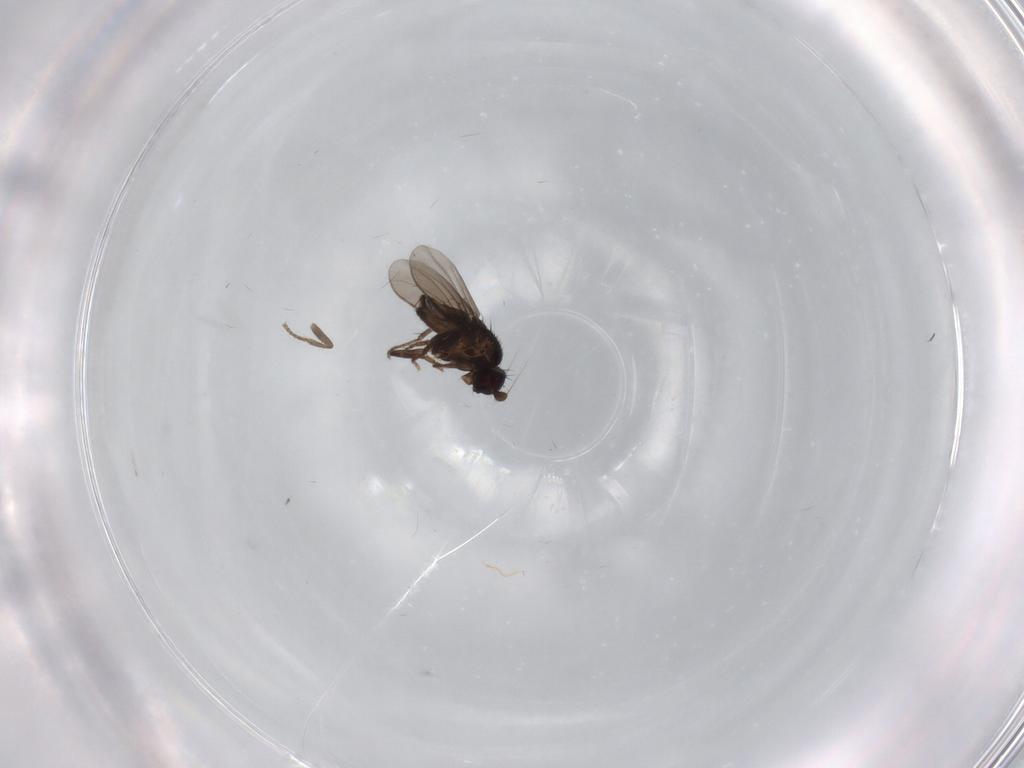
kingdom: Animalia
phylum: Arthropoda
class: Insecta
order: Diptera
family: Sphaeroceridae
